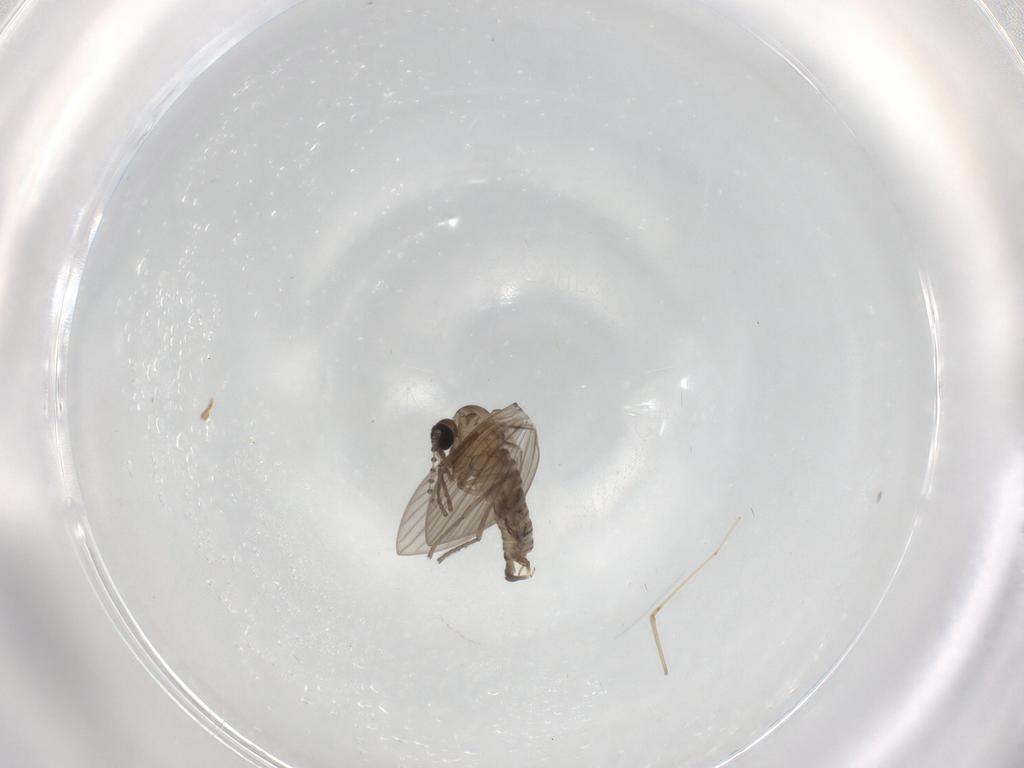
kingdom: Animalia
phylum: Arthropoda
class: Insecta
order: Diptera
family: Psychodidae
